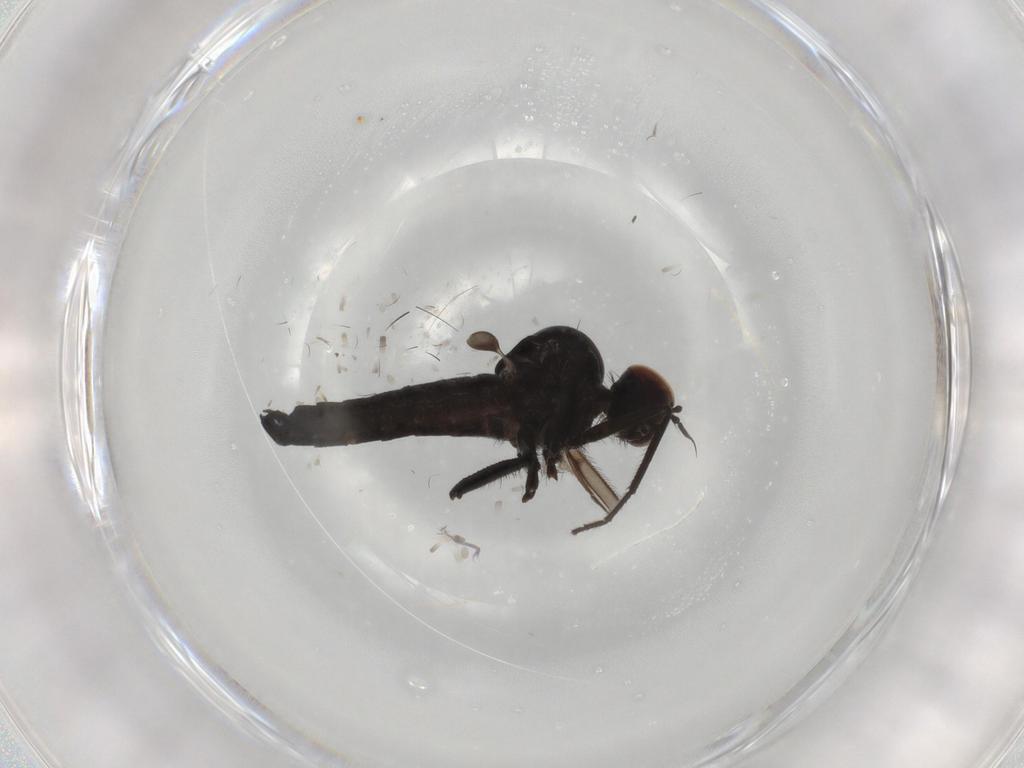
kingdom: Animalia
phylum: Arthropoda
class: Insecta
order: Diptera
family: Hybotidae
